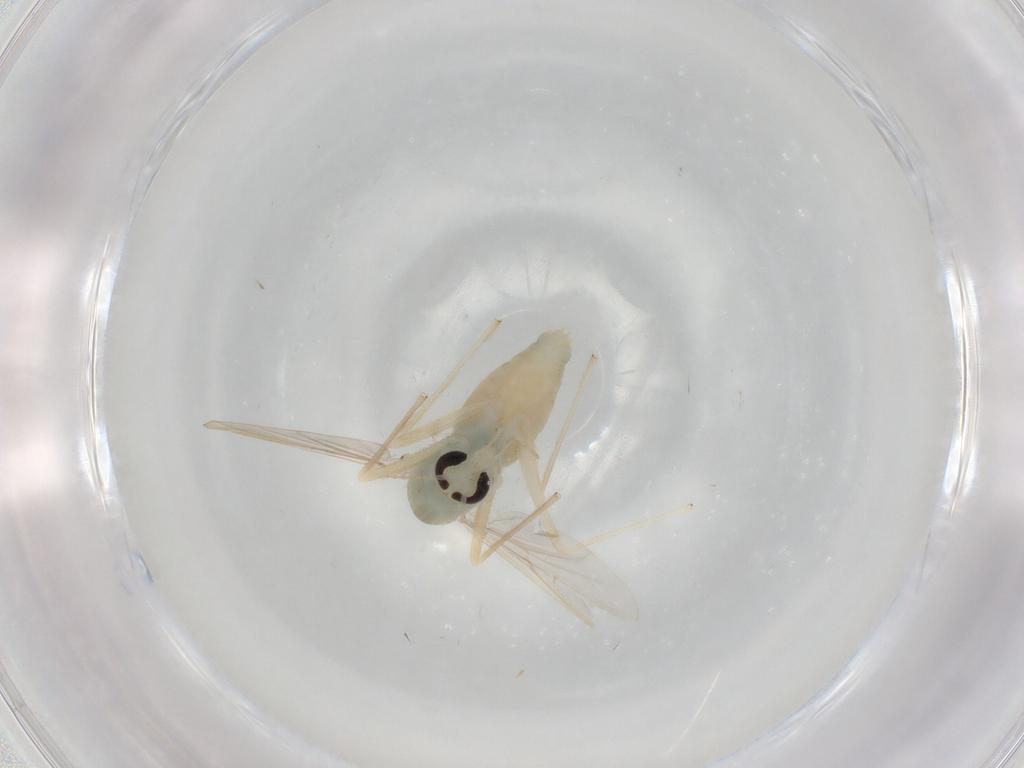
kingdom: Animalia
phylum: Arthropoda
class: Insecta
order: Diptera
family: Chironomidae
